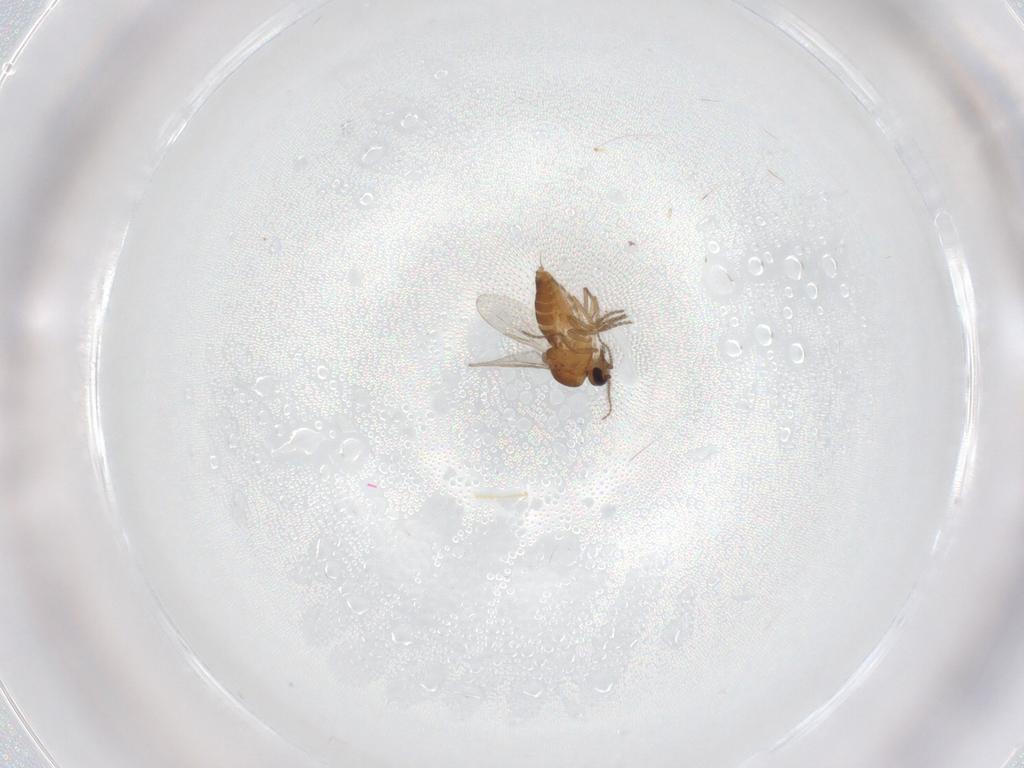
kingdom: Animalia
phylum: Arthropoda
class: Insecta
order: Diptera
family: Ceratopogonidae
